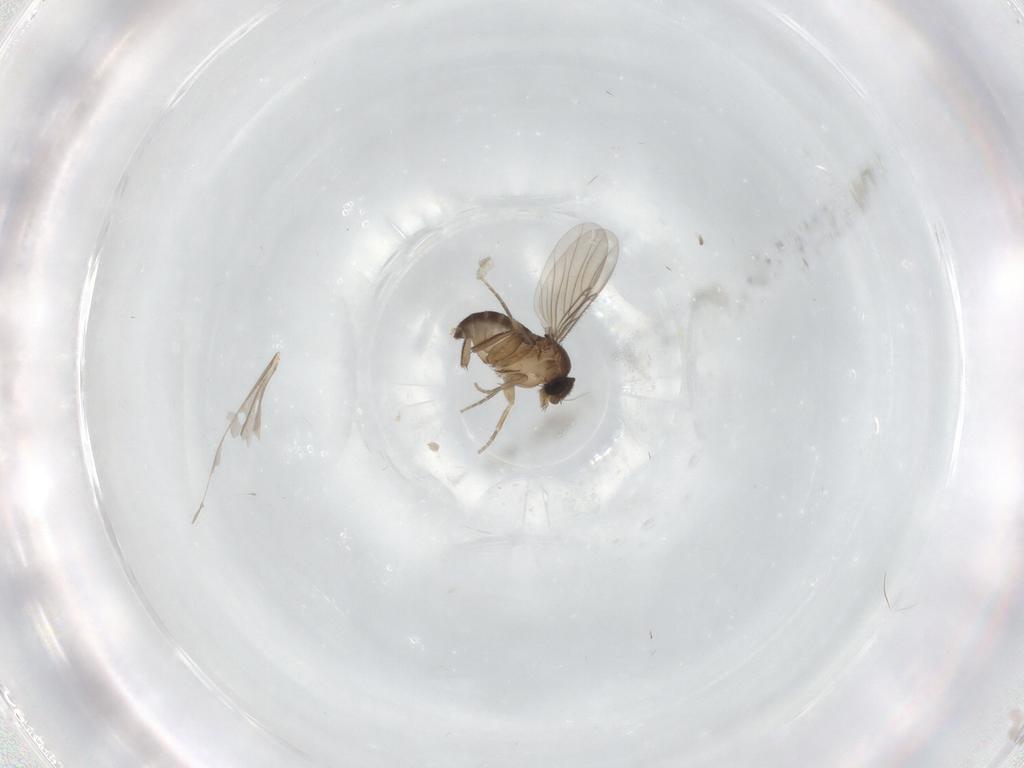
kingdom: Animalia
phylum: Arthropoda
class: Insecta
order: Diptera
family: Phoridae
